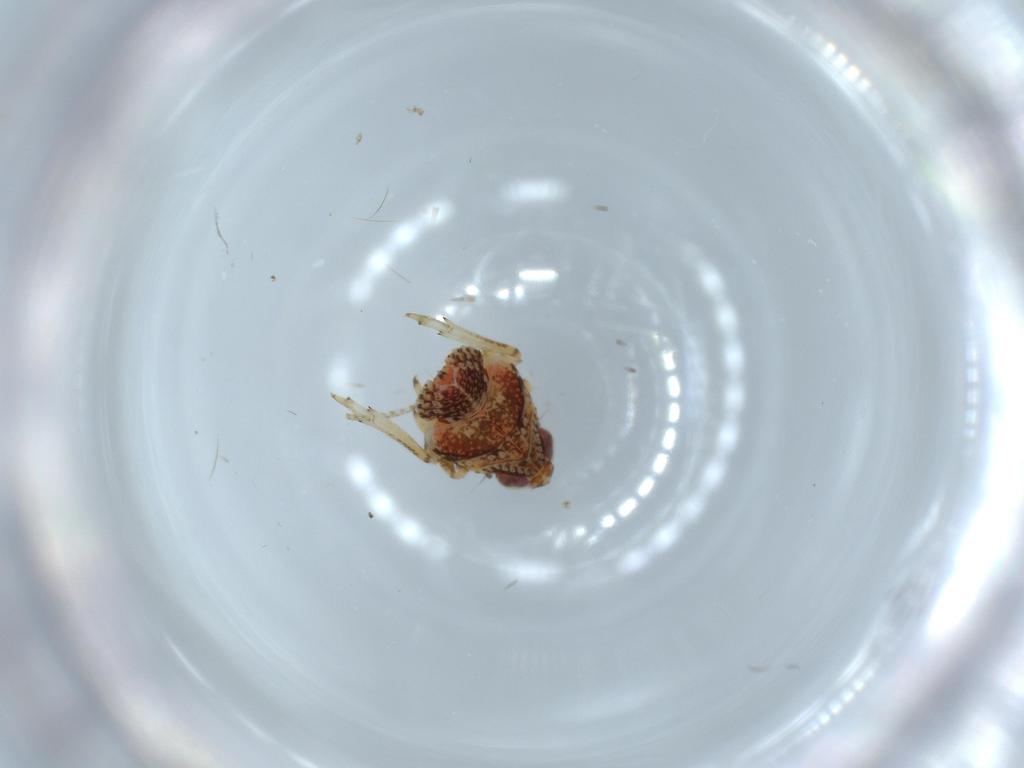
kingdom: Animalia
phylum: Arthropoda
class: Insecta
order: Hemiptera
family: Issidae
